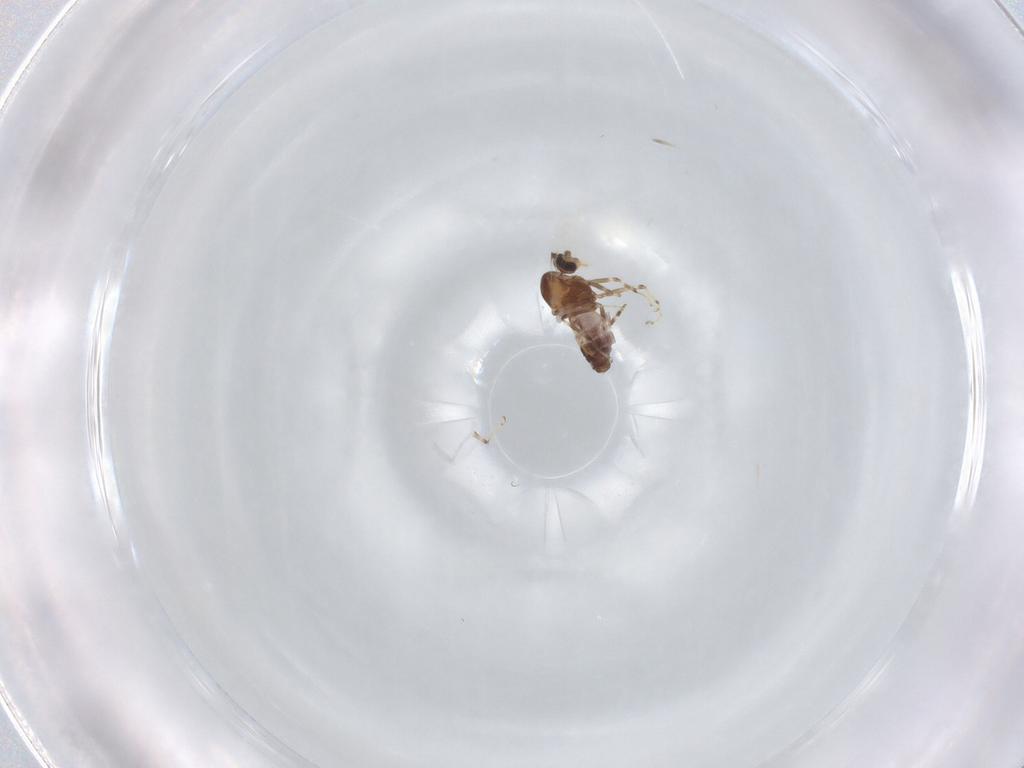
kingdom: Animalia
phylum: Arthropoda
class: Insecta
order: Diptera
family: Ceratopogonidae
